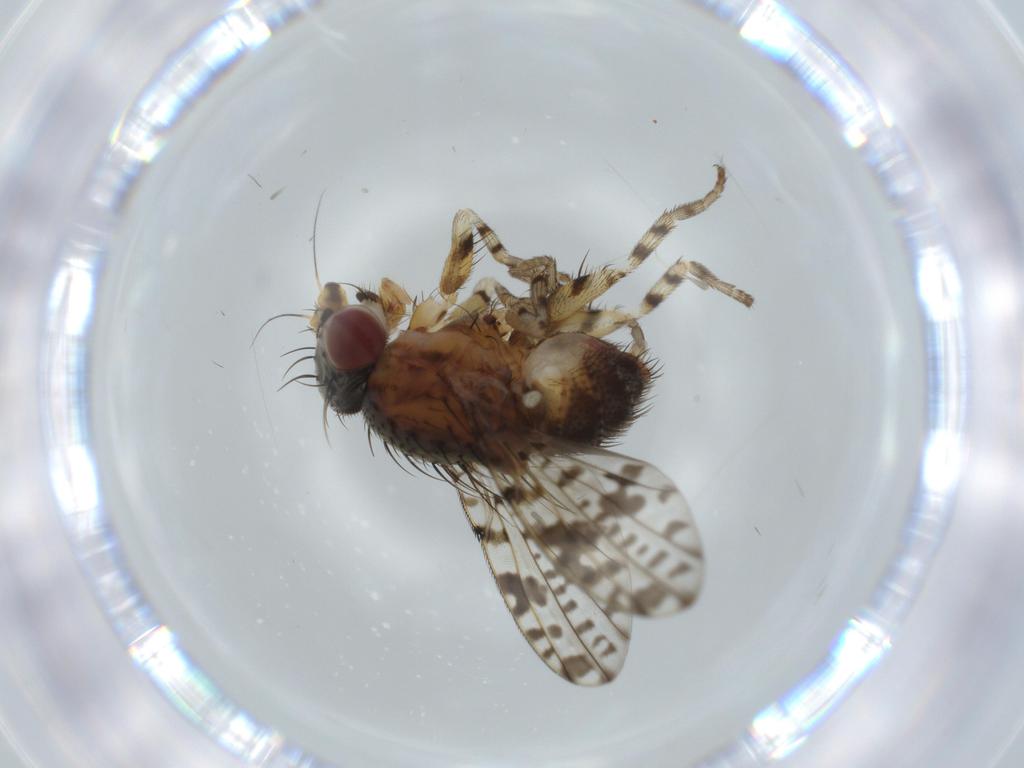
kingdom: Animalia
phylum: Arthropoda
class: Insecta
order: Diptera
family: Odiniidae
